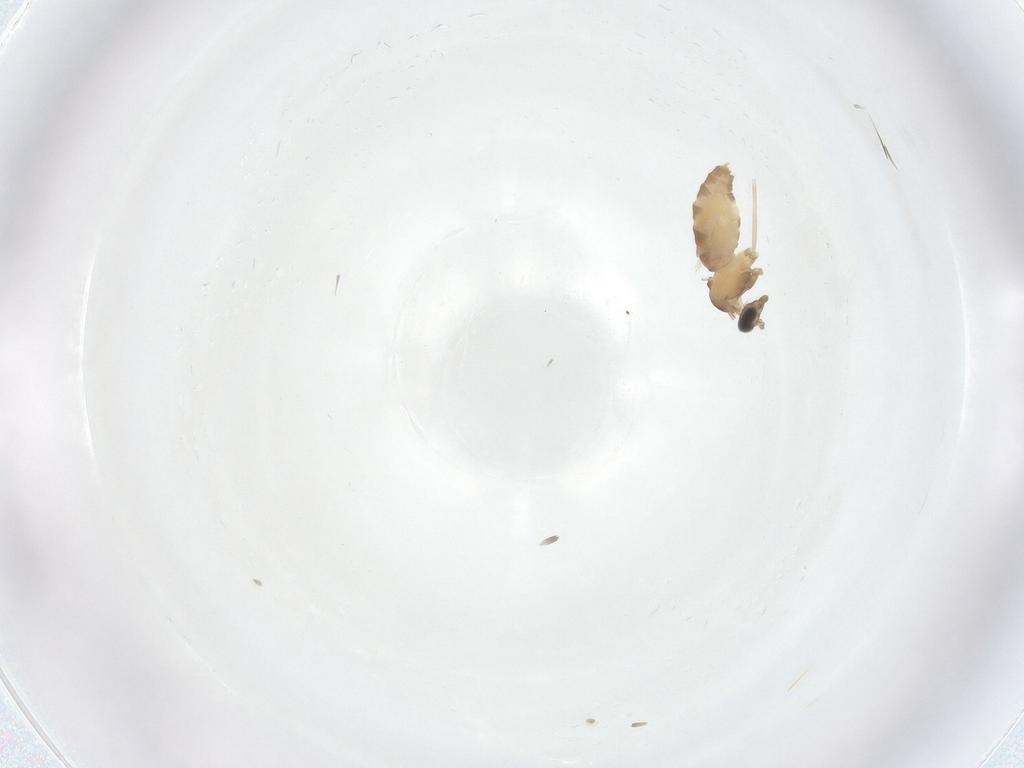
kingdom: Animalia
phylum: Arthropoda
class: Insecta
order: Diptera
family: Cecidomyiidae
